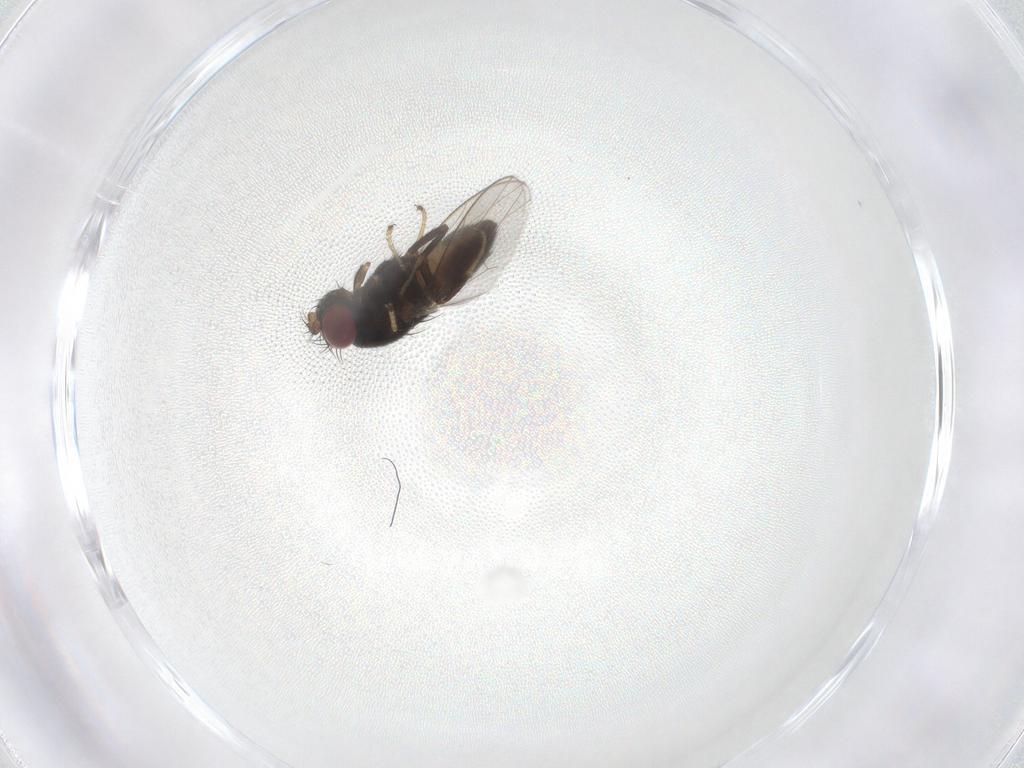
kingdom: Animalia
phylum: Arthropoda
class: Insecta
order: Diptera
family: Ephydridae
